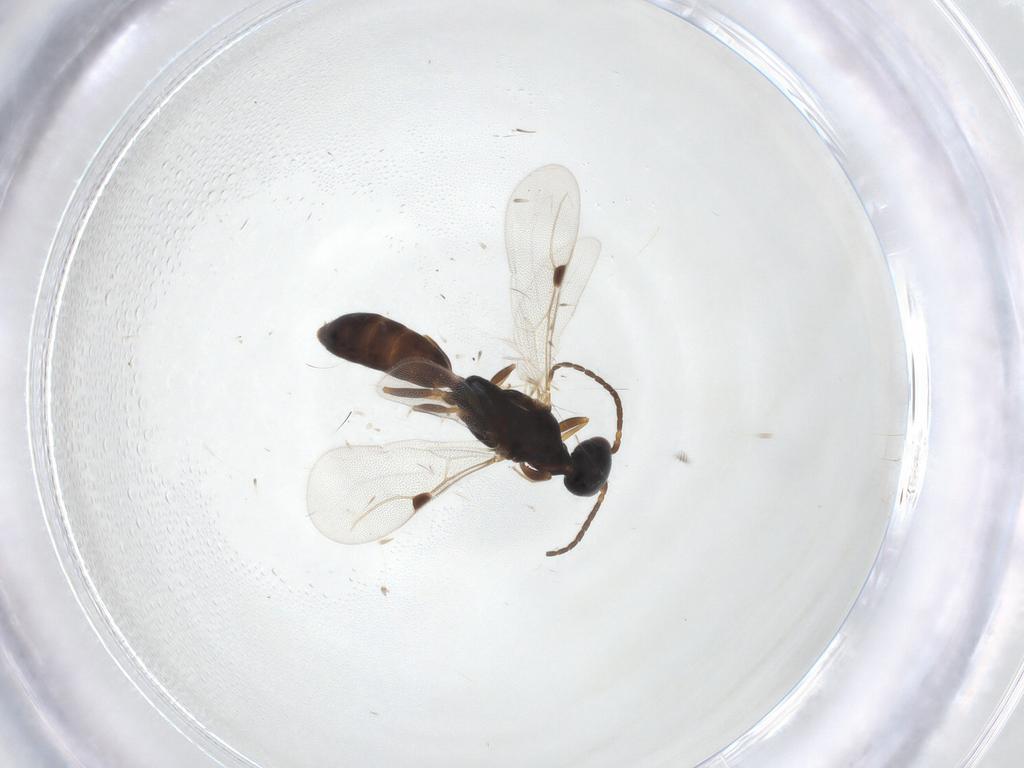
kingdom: Animalia
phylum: Arthropoda
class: Insecta
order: Hymenoptera
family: Bethylidae
